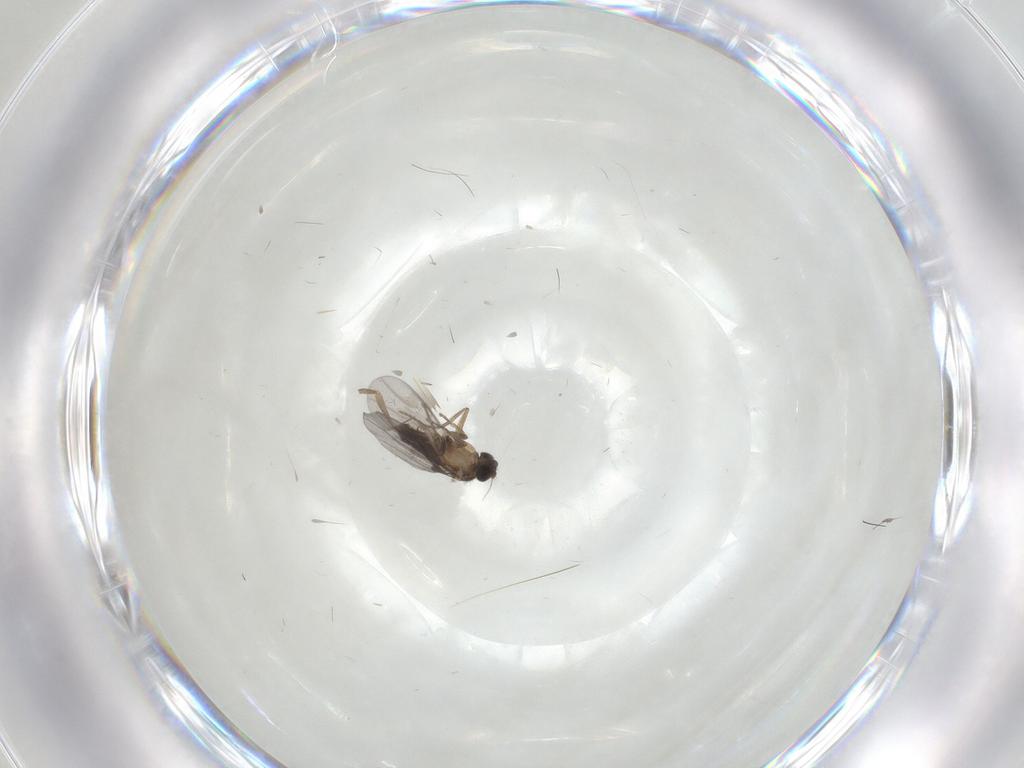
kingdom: Animalia
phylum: Arthropoda
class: Insecta
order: Diptera
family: Cecidomyiidae
